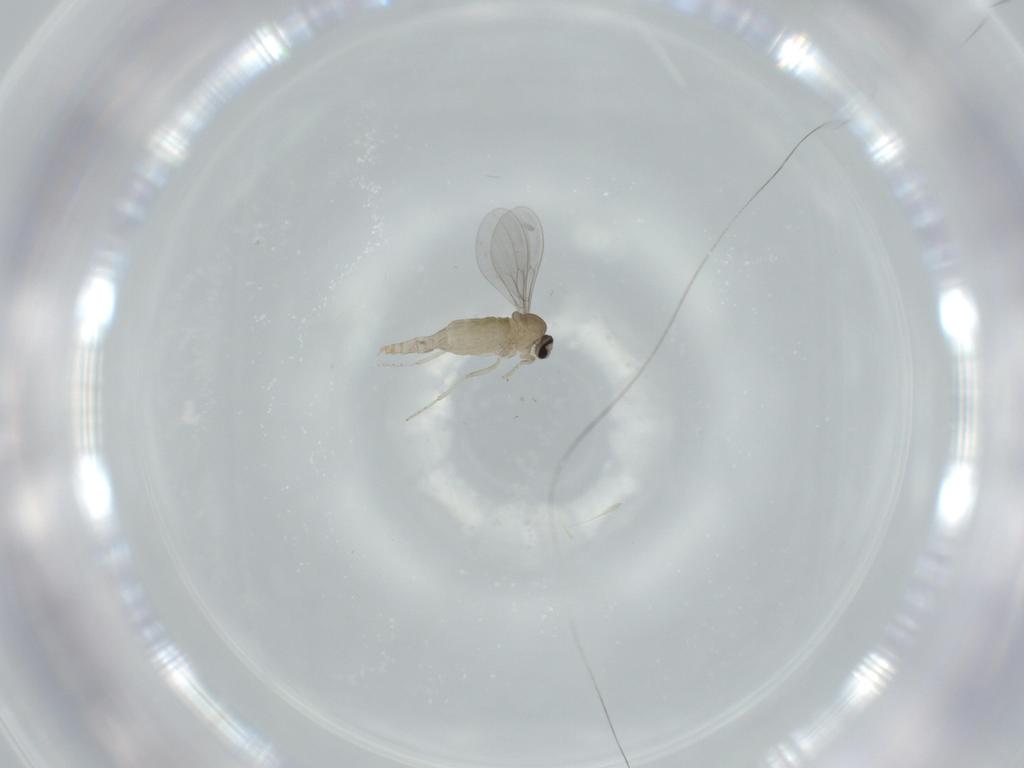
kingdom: Animalia
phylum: Arthropoda
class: Insecta
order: Diptera
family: Cecidomyiidae
